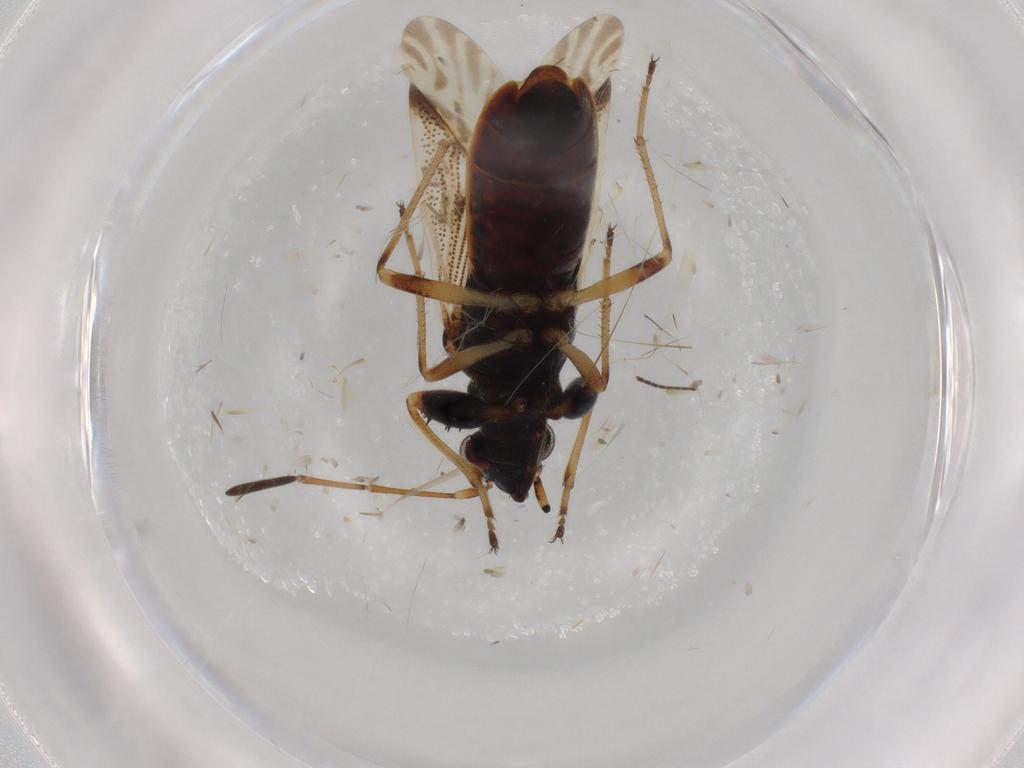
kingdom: Animalia
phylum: Arthropoda
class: Insecta
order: Hemiptera
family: Rhyparochromidae
